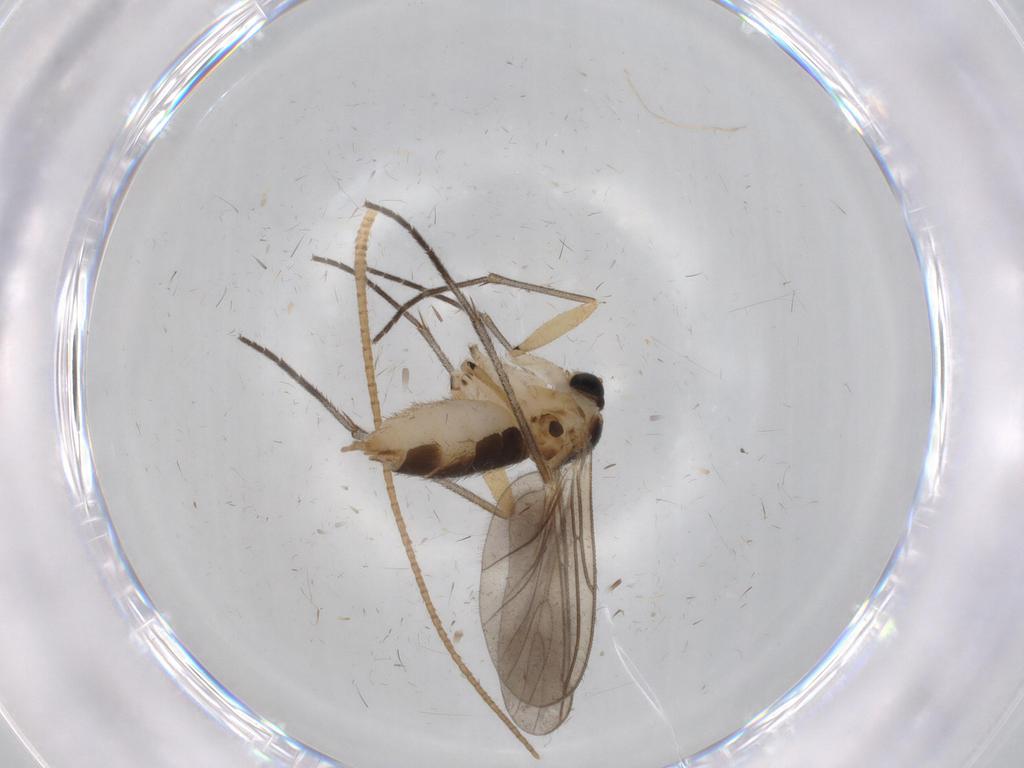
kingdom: Animalia
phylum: Arthropoda
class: Insecta
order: Diptera
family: Sciaridae
